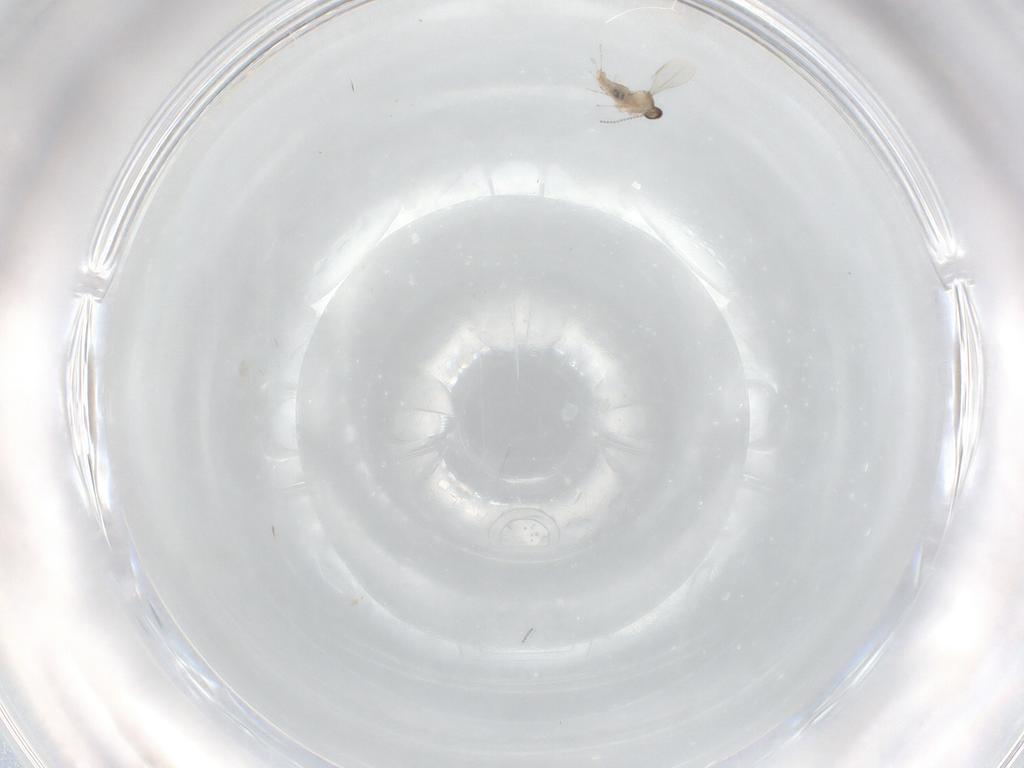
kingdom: Animalia
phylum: Arthropoda
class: Insecta
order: Diptera
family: Cecidomyiidae
